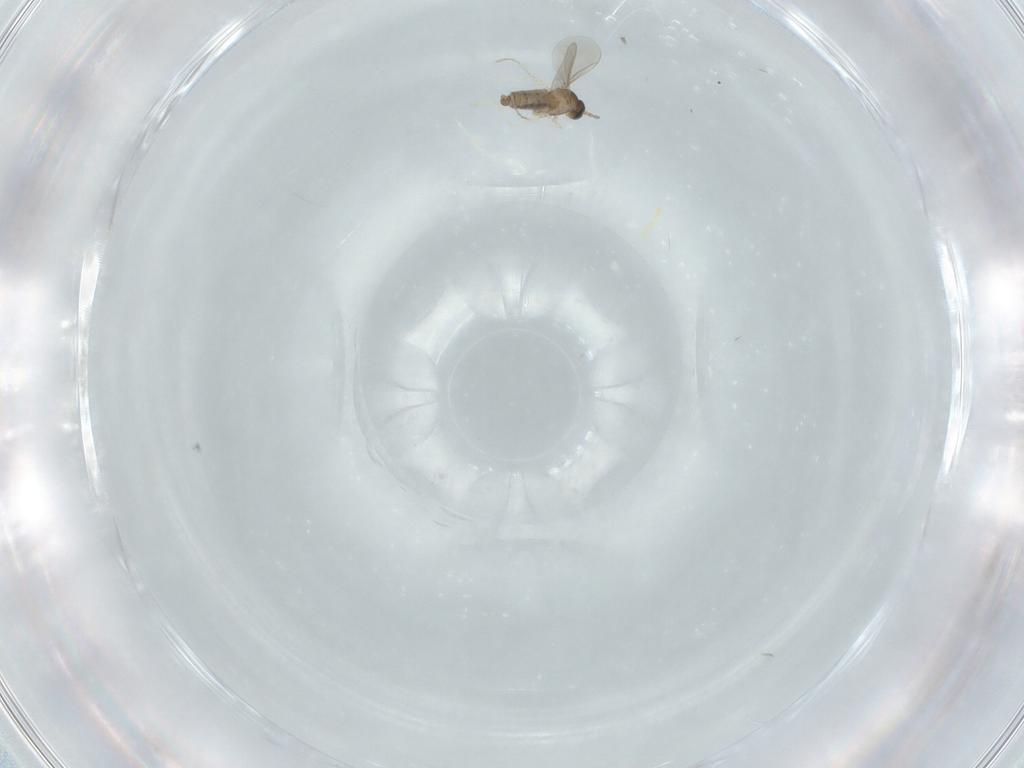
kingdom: Animalia
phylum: Arthropoda
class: Insecta
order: Diptera
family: Cecidomyiidae
